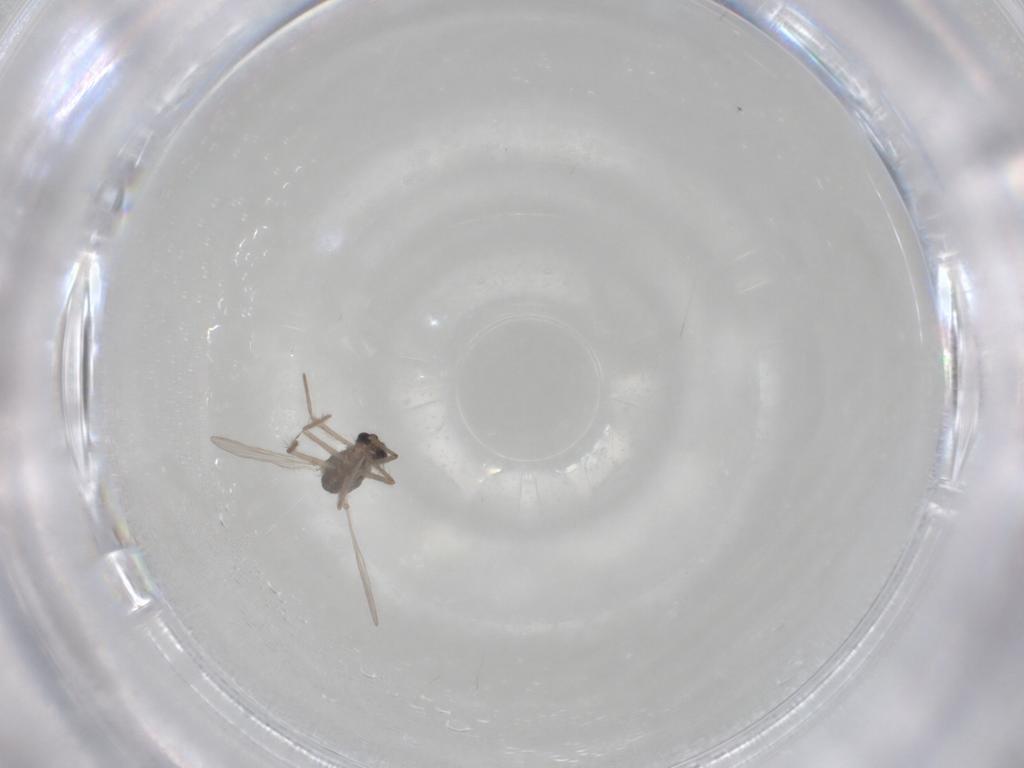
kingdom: Animalia
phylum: Arthropoda
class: Insecta
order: Diptera
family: Chironomidae
